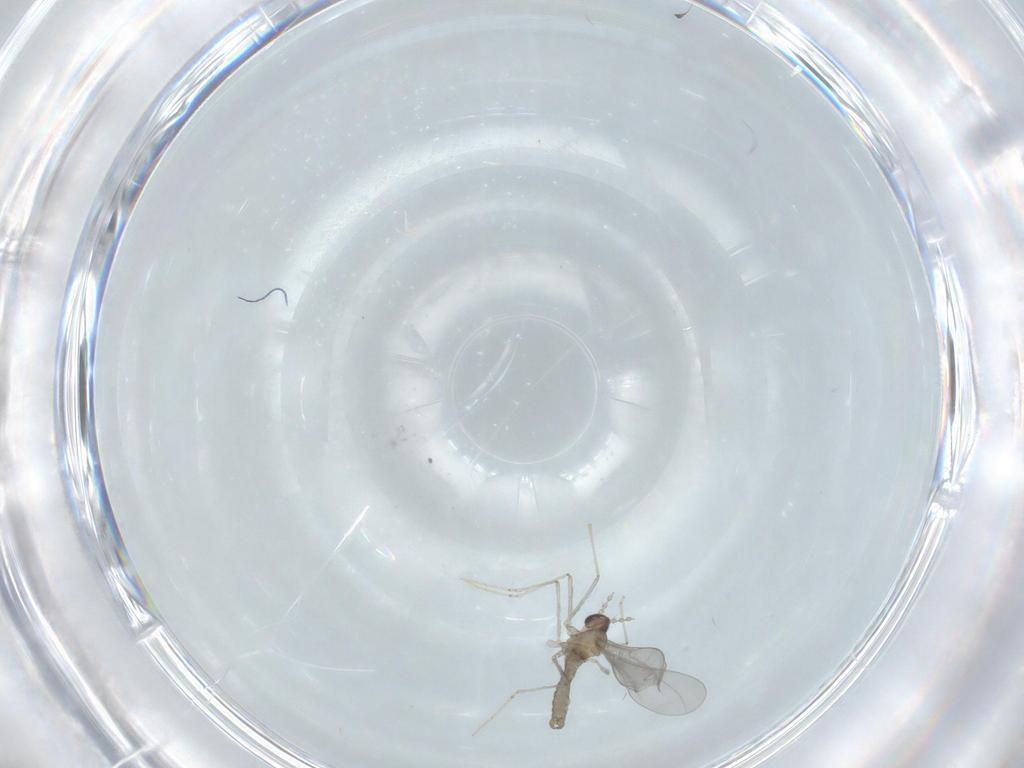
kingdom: Animalia
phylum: Arthropoda
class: Insecta
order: Diptera
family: Cecidomyiidae
